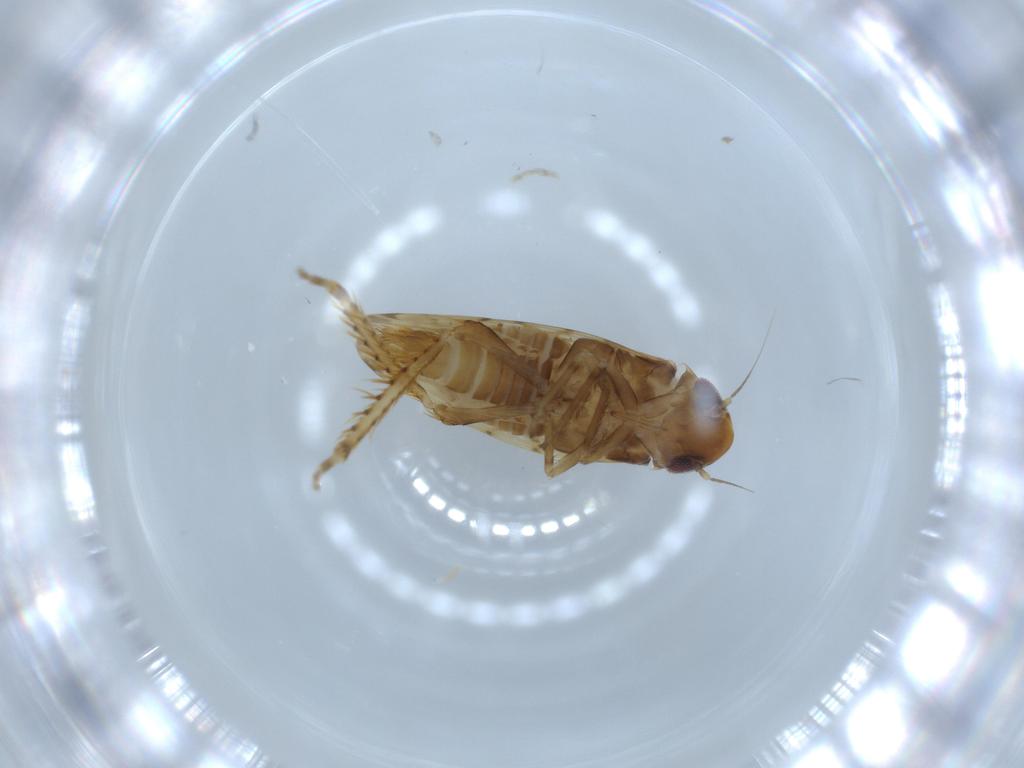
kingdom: Animalia
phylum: Arthropoda
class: Insecta
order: Hemiptera
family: Cicadellidae
